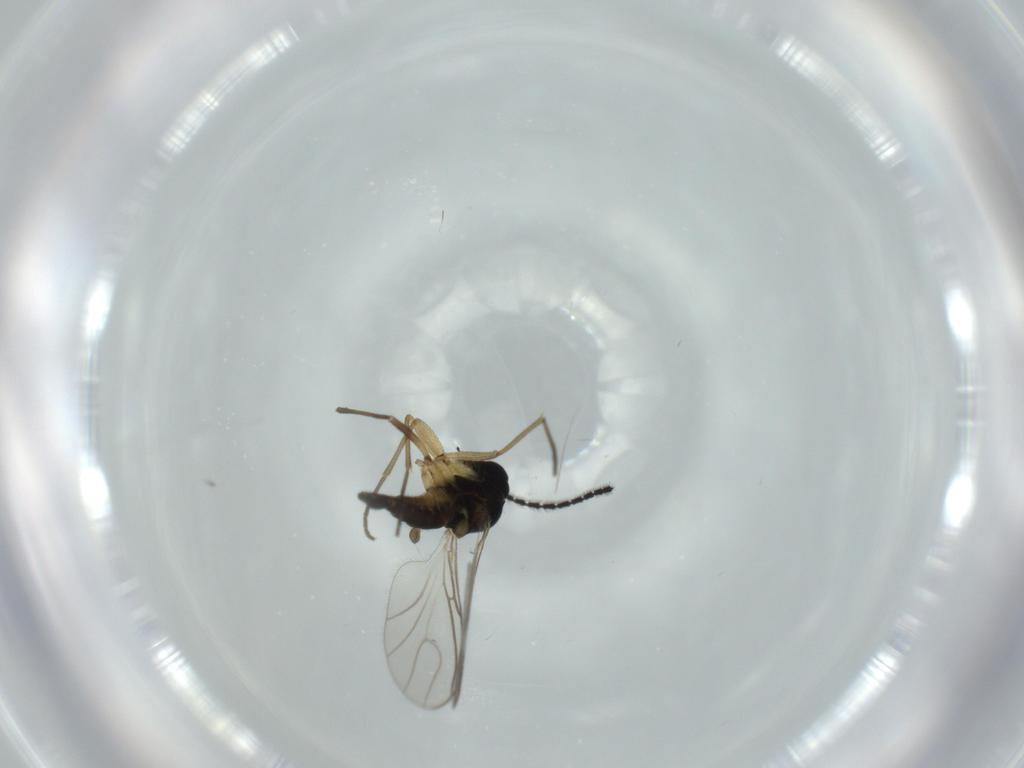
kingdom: Animalia
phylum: Arthropoda
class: Insecta
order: Diptera
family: Sciaridae
